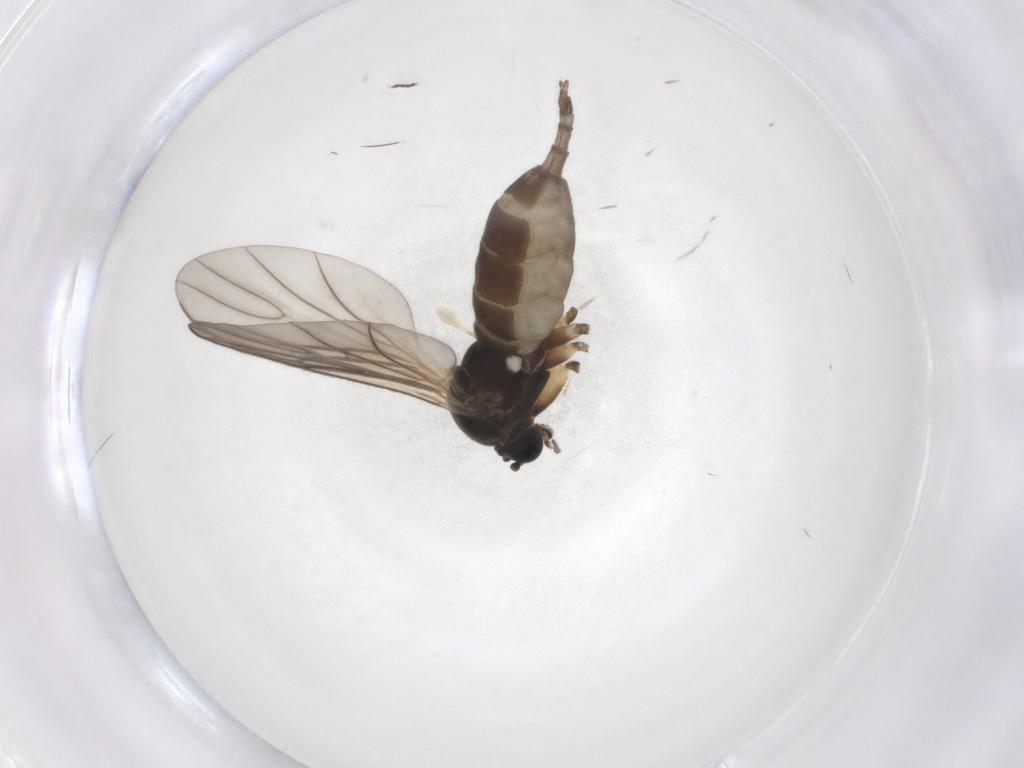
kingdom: Animalia
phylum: Arthropoda
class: Insecta
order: Diptera
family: Sciaridae
